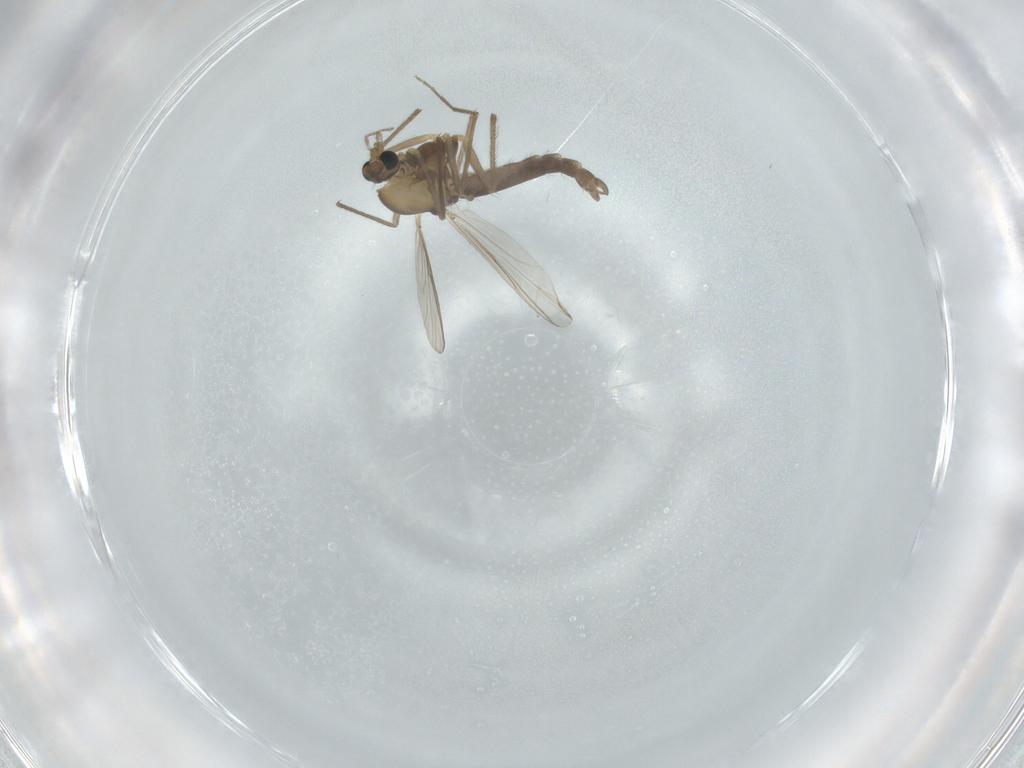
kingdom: Animalia
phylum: Arthropoda
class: Insecta
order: Diptera
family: Chironomidae
